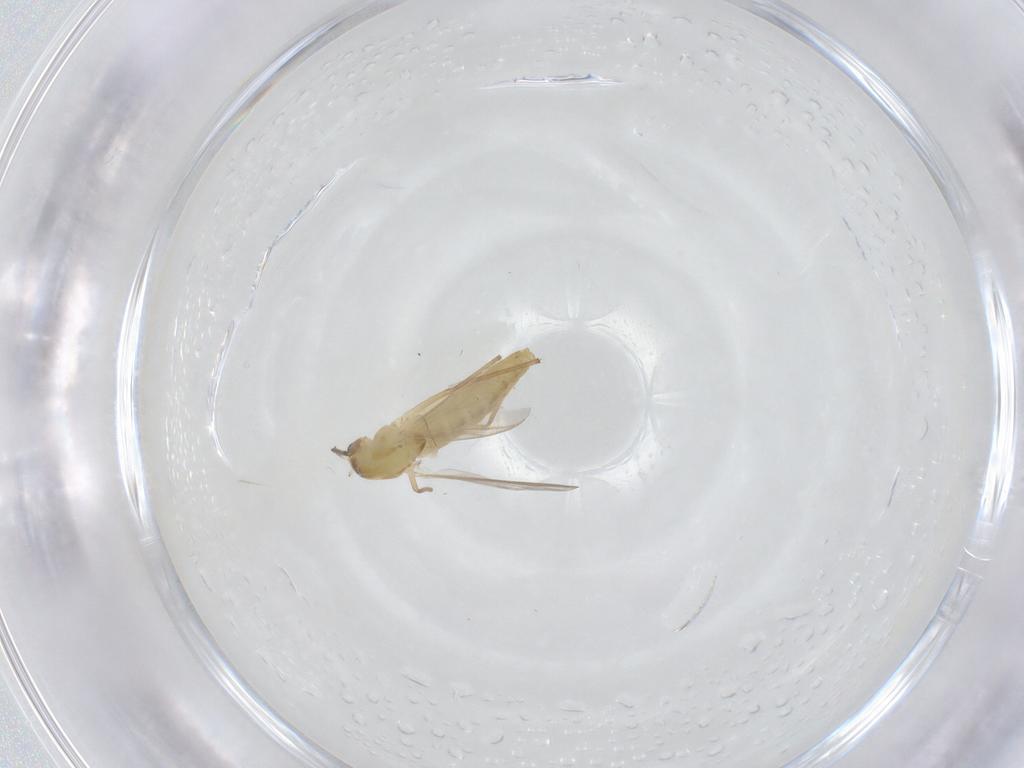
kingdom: Animalia
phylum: Arthropoda
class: Insecta
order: Diptera
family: Chironomidae
